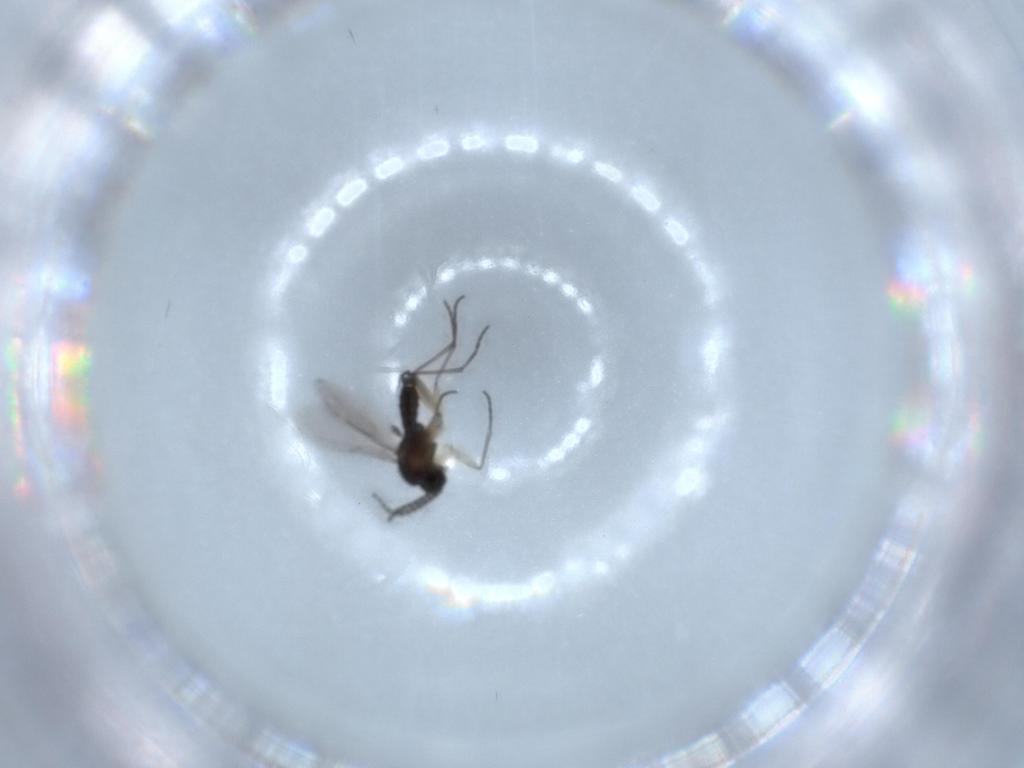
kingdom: Animalia
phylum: Arthropoda
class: Insecta
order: Diptera
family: Sciaridae
